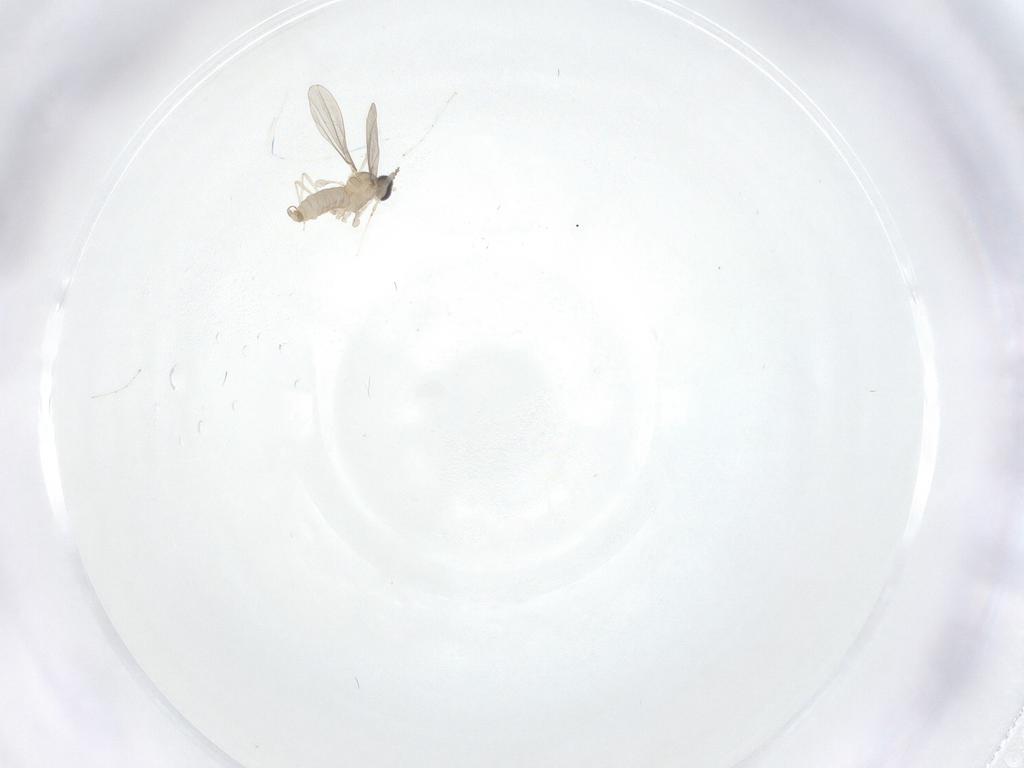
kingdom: Animalia
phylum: Arthropoda
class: Insecta
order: Diptera
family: Cecidomyiidae
